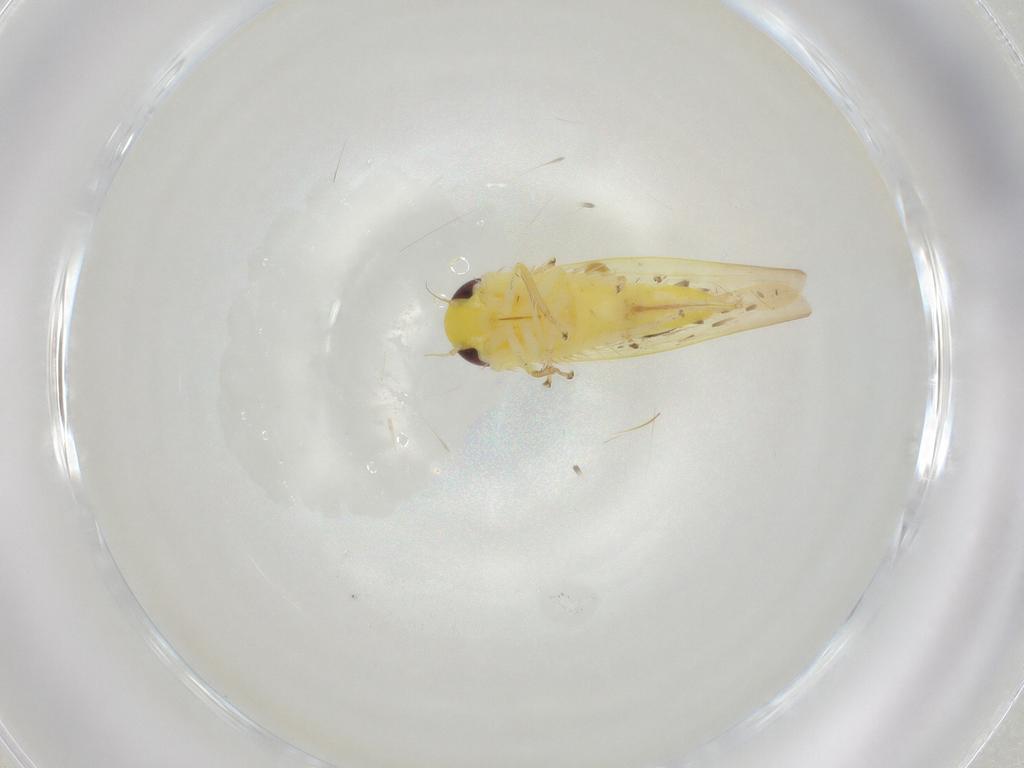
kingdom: Animalia
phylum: Arthropoda
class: Insecta
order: Hemiptera
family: Cicadellidae
